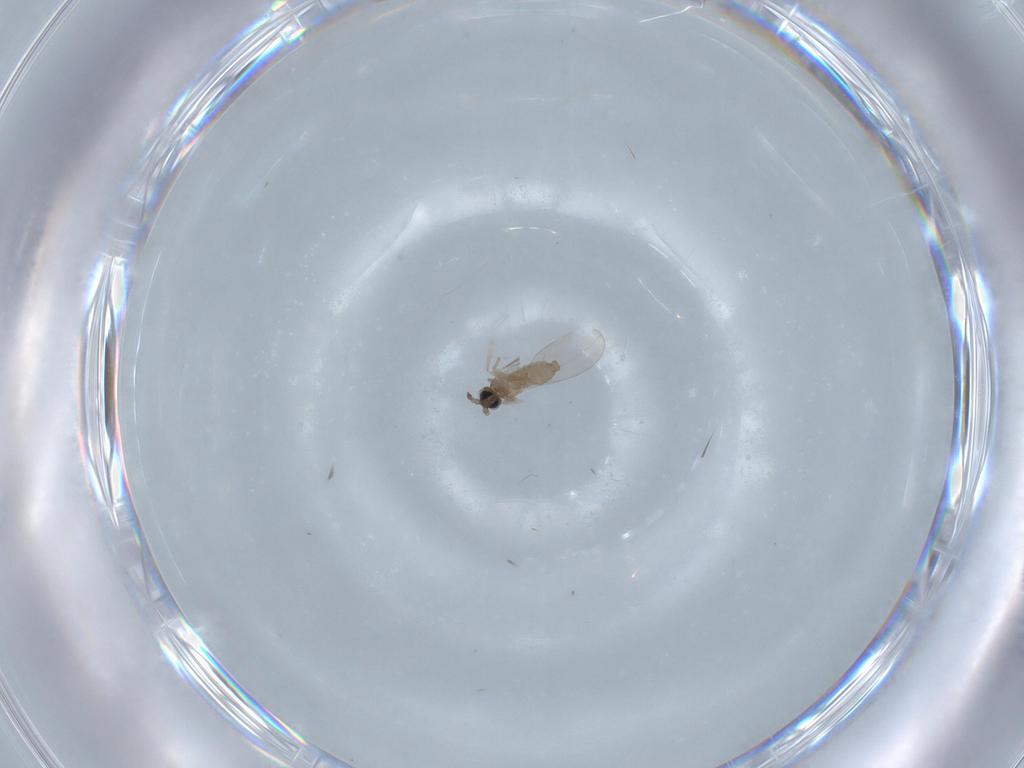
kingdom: Animalia
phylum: Arthropoda
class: Insecta
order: Diptera
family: Cecidomyiidae
